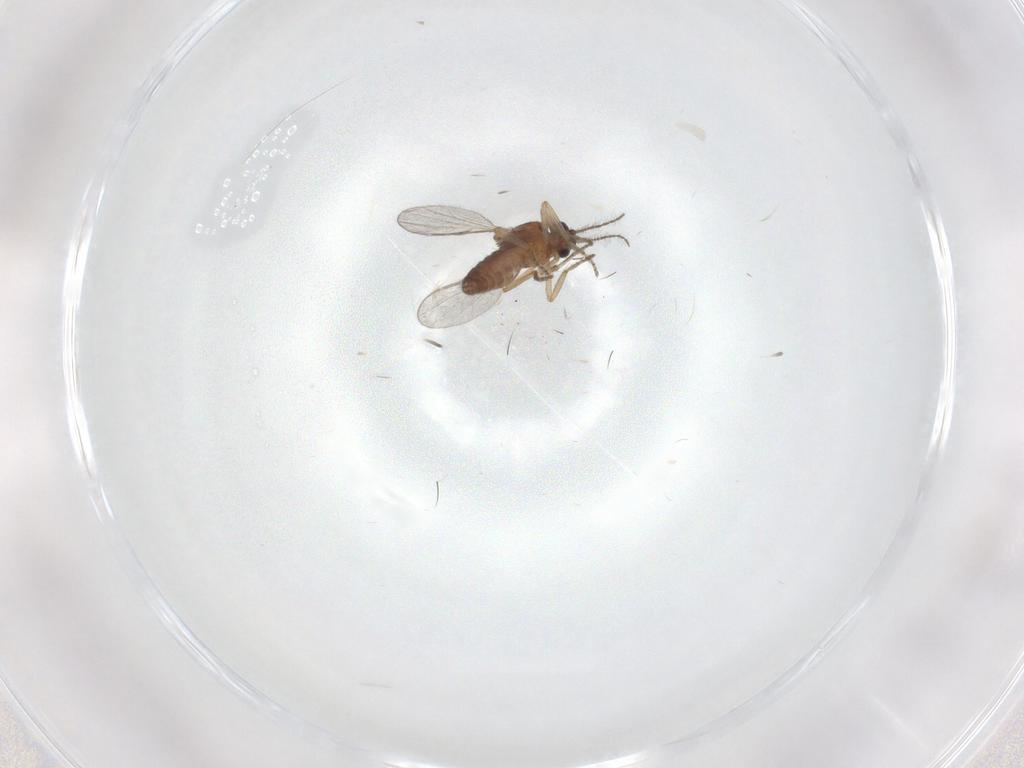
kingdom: Animalia
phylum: Arthropoda
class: Insecta
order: Diptera
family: Ceratopogonidae
